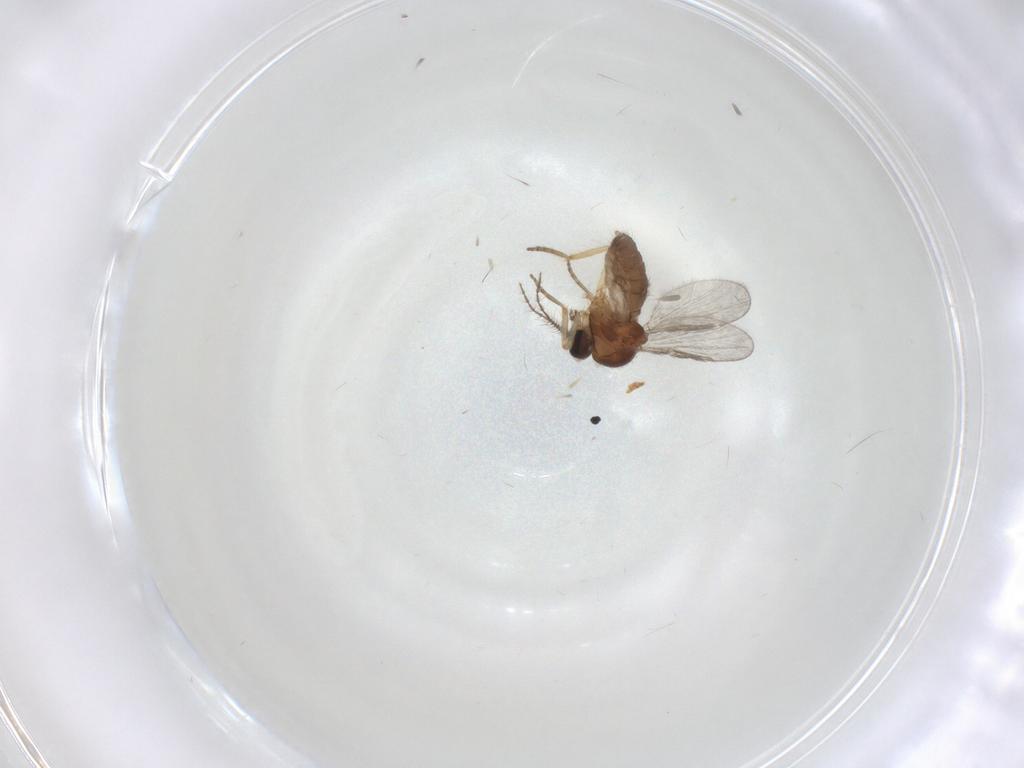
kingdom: Animalia
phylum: Arthropoda
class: Insecta
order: Diptera
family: Ceratopogonidae
